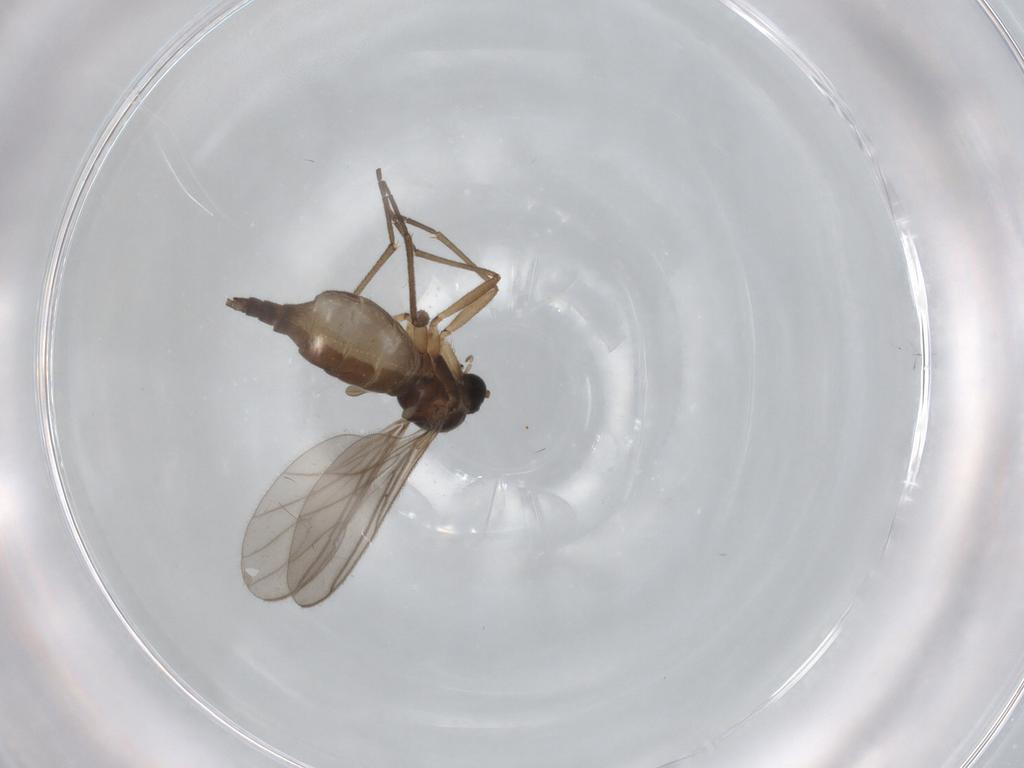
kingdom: Animalia
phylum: Arthropoda
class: Insecta
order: Diptera
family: Sciaridae
